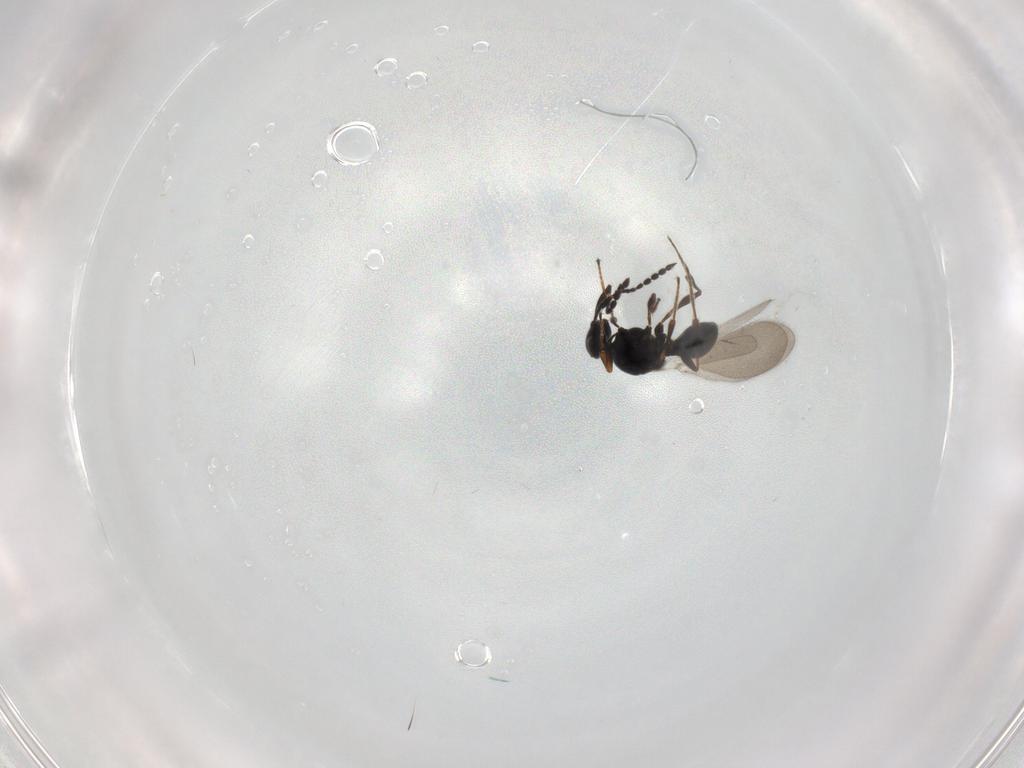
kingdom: Animalia
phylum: Arthropoda
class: Insecta
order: Hymenoptera
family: Platygastridae
